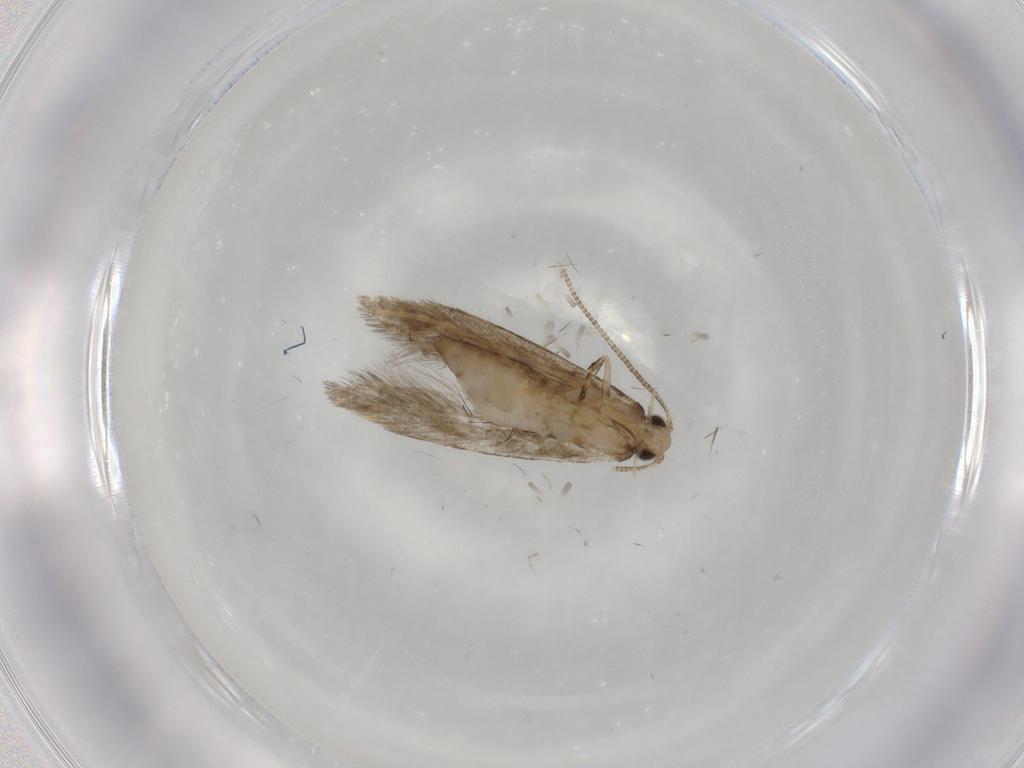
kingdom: Animalia
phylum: Arthropoda
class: Insecta
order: Lepidoptera
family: Tineidae
